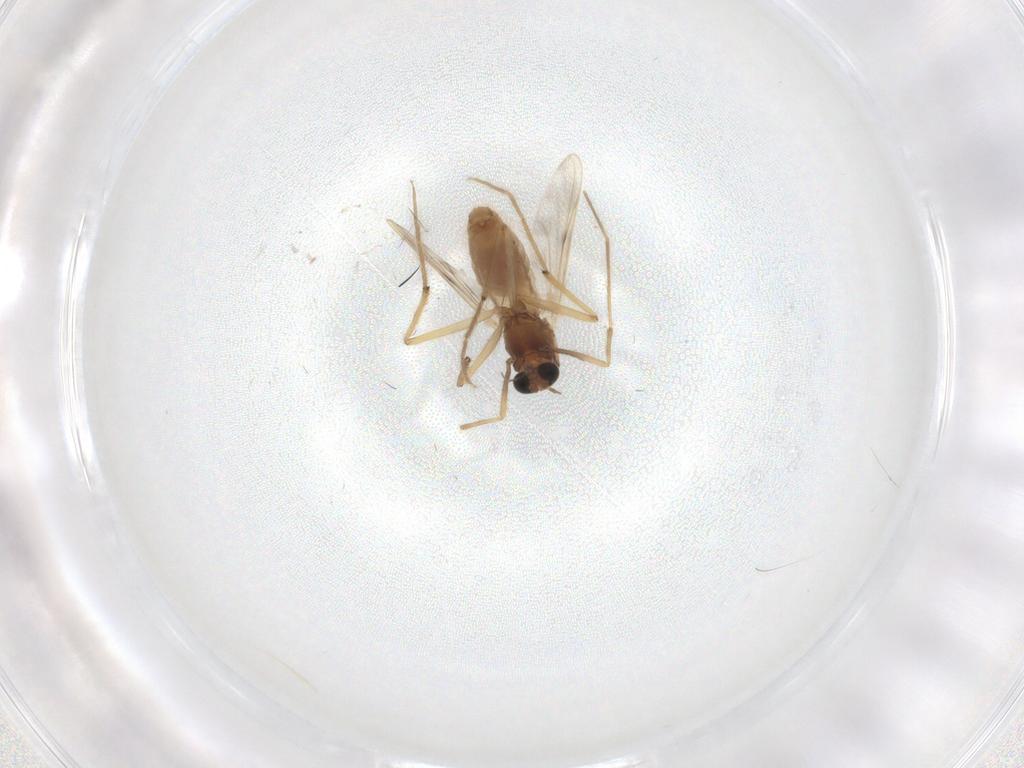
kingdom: Animalia
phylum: Arthropoda
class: Insecta
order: Diptera
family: Chironomidae
